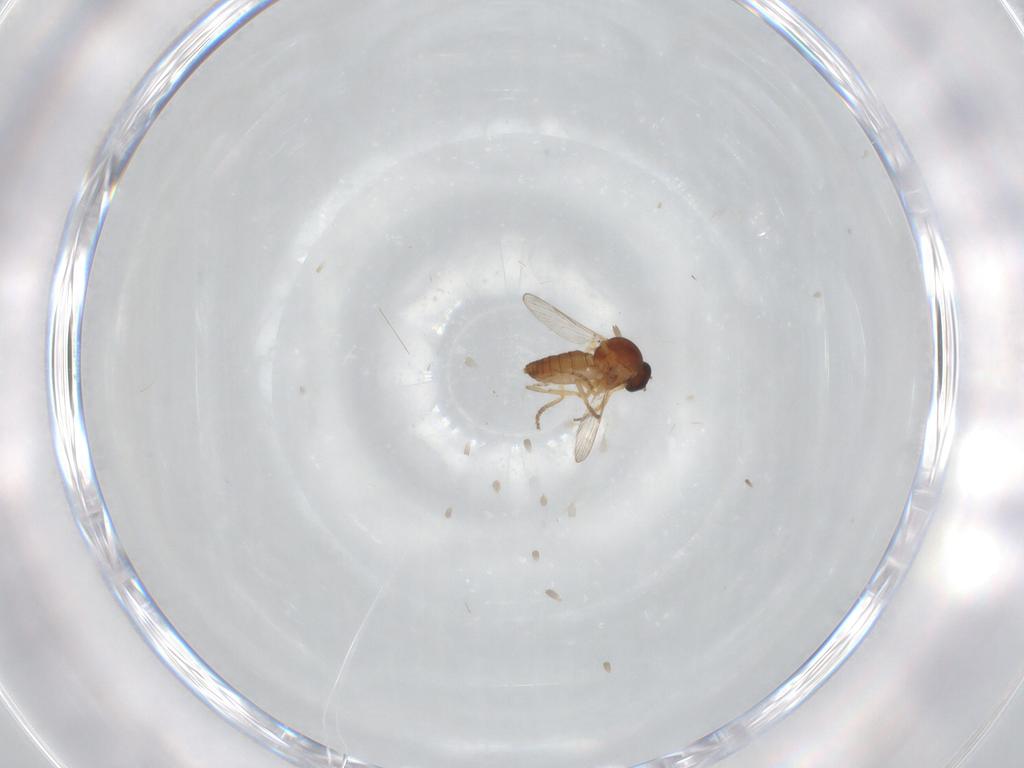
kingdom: Animalia
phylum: Arthropoda
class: Insecta
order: Diptera
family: Ceratopogonidae
